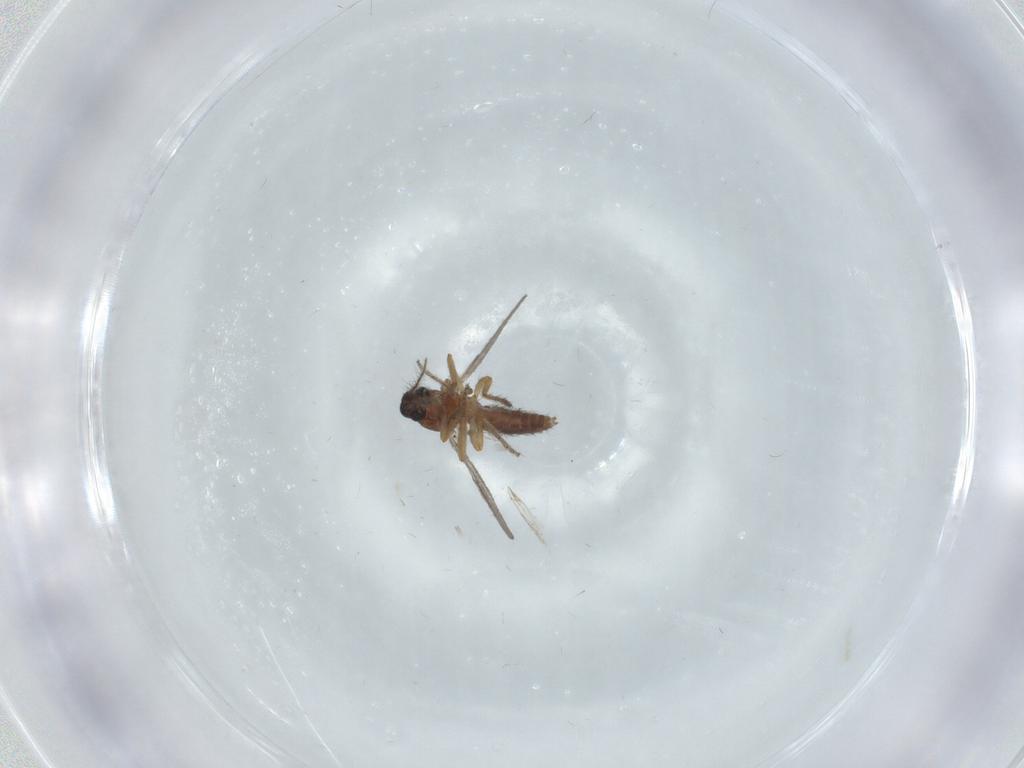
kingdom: Animalia
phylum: Arthropoda
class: Insecta
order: Diptera
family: Ceratopogonidae
